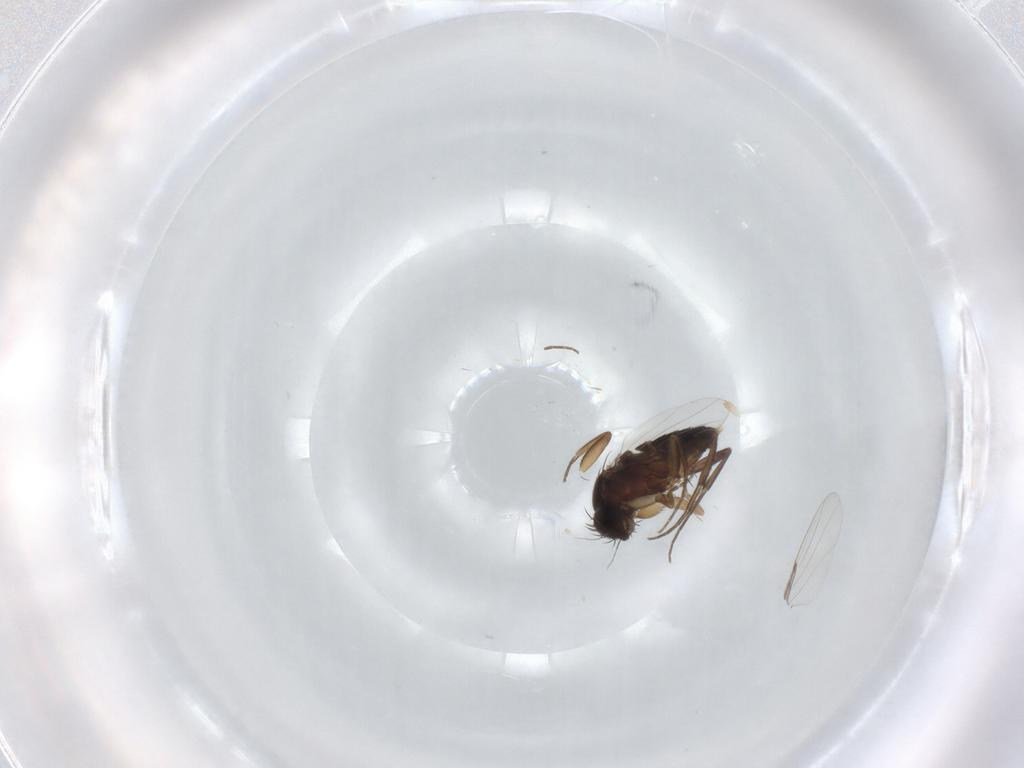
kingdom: Animalia
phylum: Arthropoda
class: Insecta
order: Diptera
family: Phoridae
